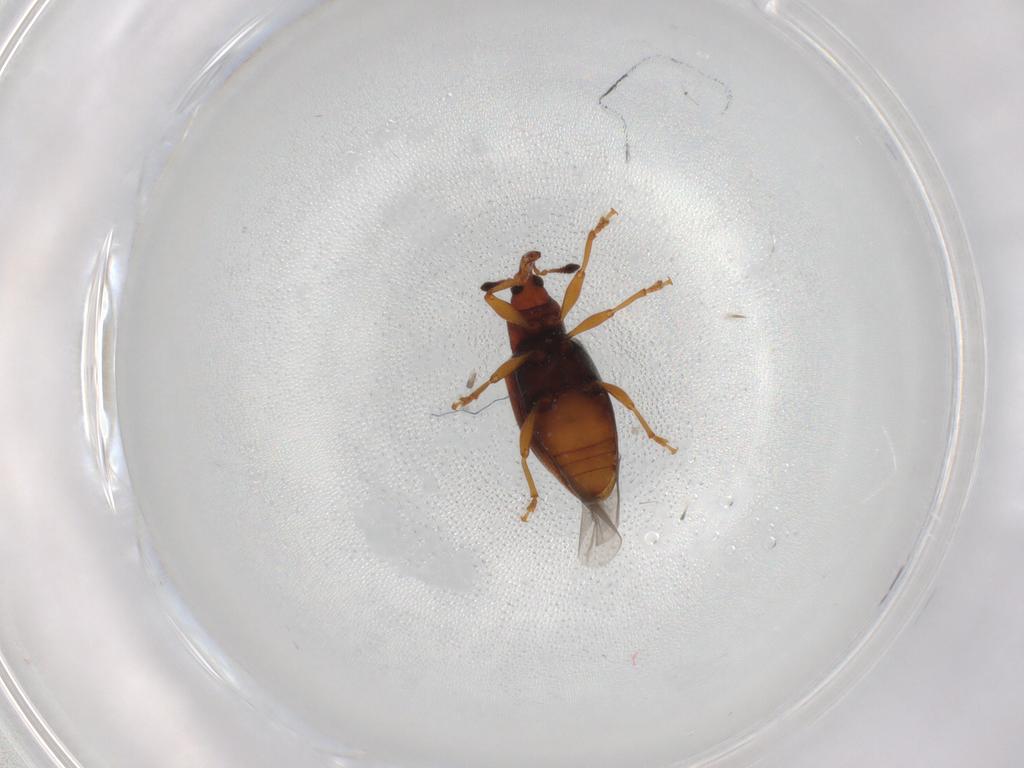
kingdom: Animalia
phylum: Arthropoda
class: Insecta
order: Coleoptera
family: Curculionidae
